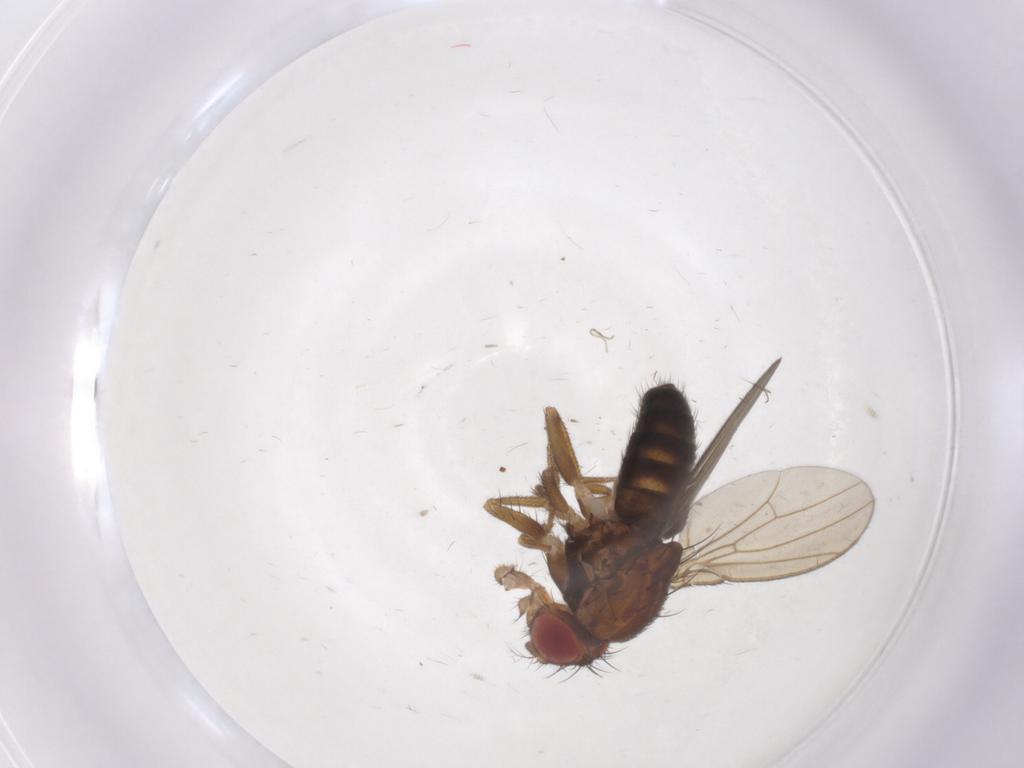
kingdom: Animalia
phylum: Arthropoda
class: Insecta
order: Diptera
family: Drosophilidae
